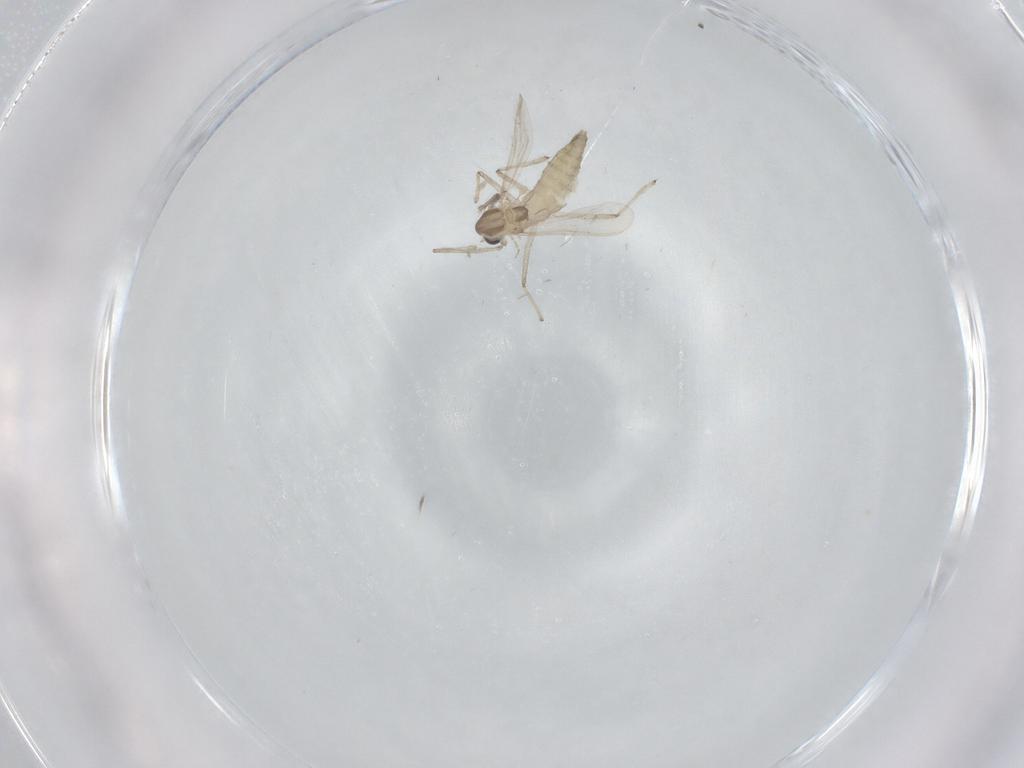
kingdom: Animalia
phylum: Arthropoda
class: Insecta
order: Diptera
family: Chironomidae
